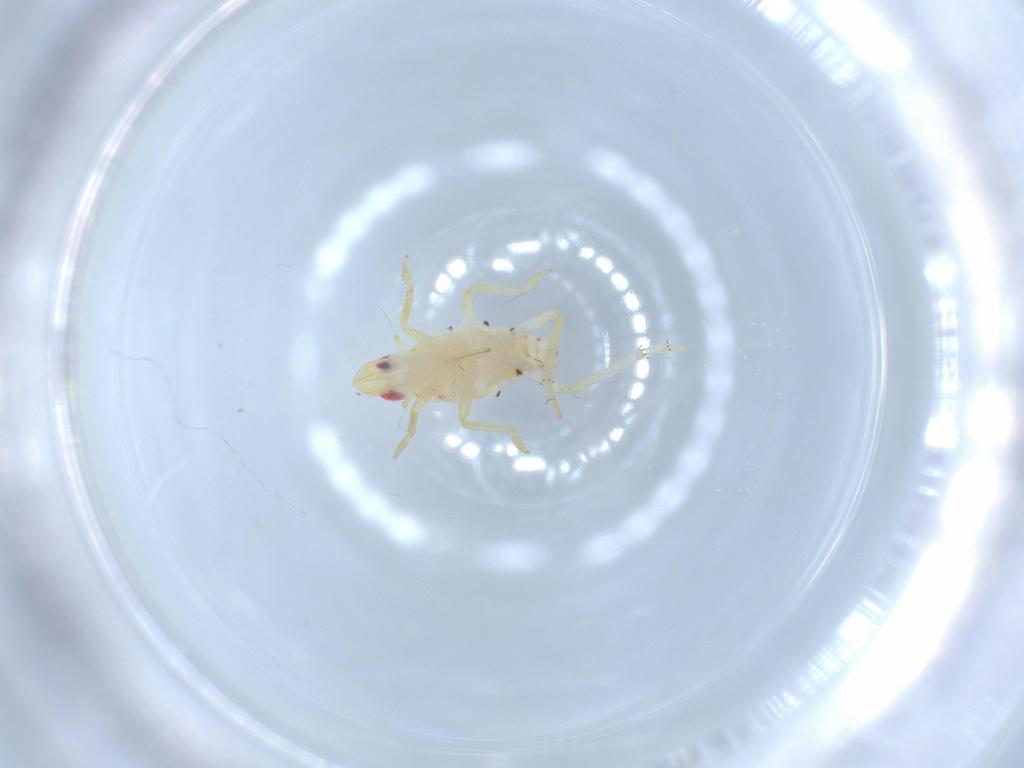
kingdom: Animalia
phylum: Arthropoda
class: Insecta
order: Hemiptera
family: Tropiduchidae
